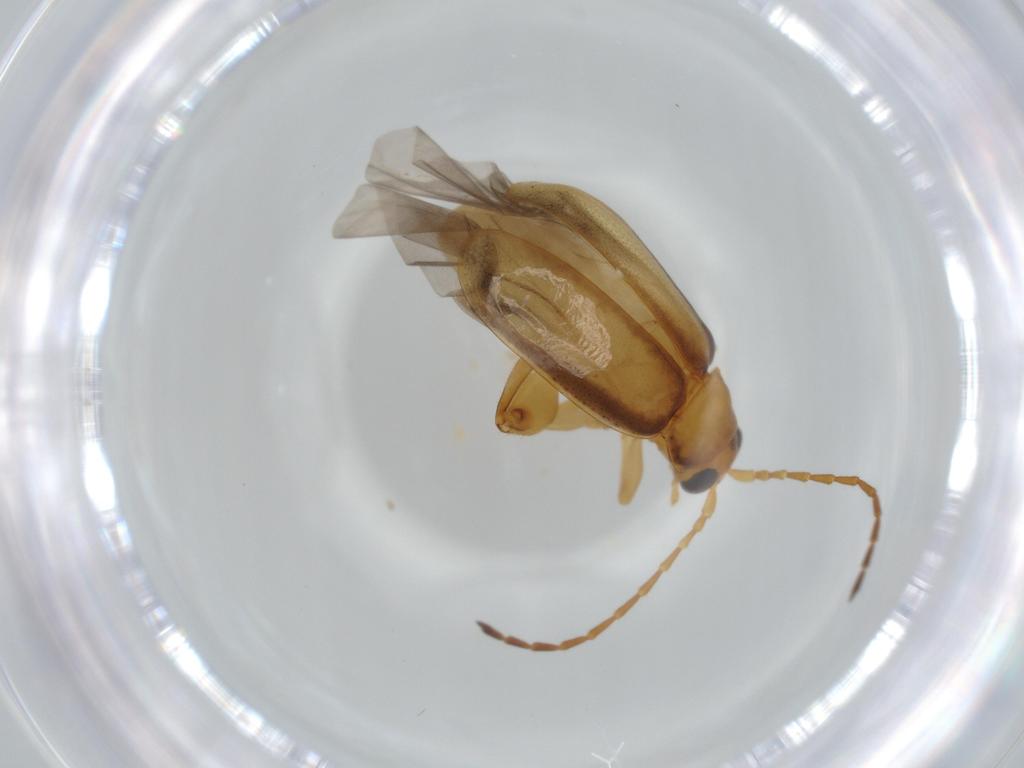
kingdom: Animalia
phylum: Arthropoda
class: Insecta
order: Coleoptera
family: Chrysomelidae
